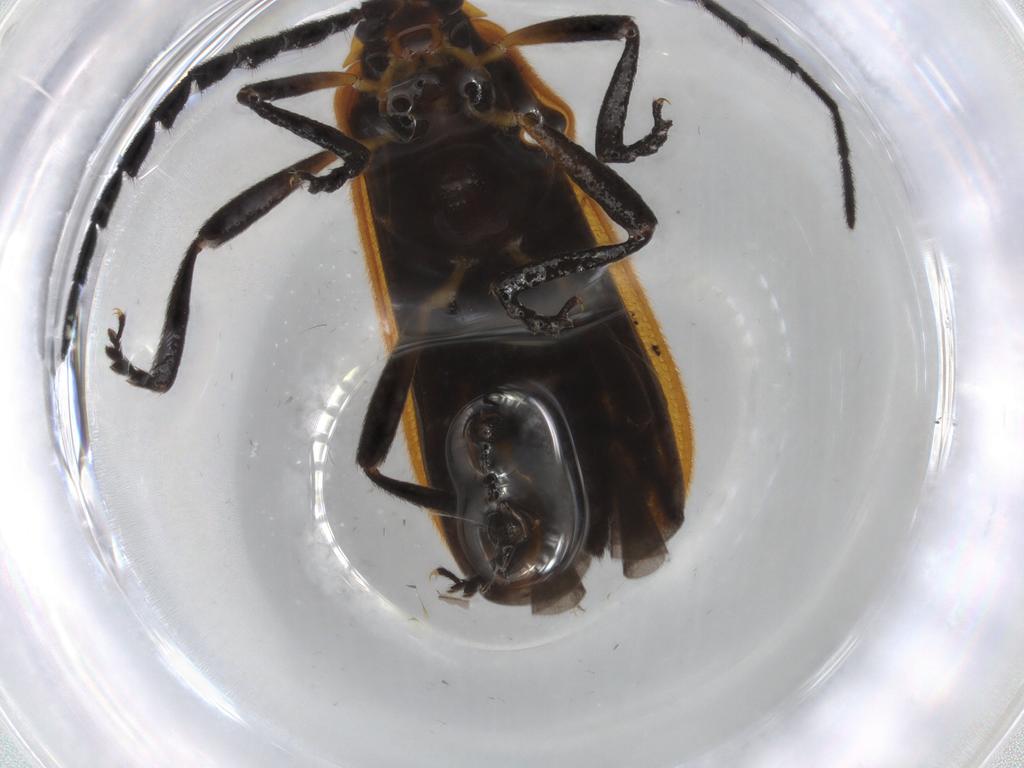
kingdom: Animalia
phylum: Arthropoda
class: Insecta
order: Coleoptera
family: Lycidae
